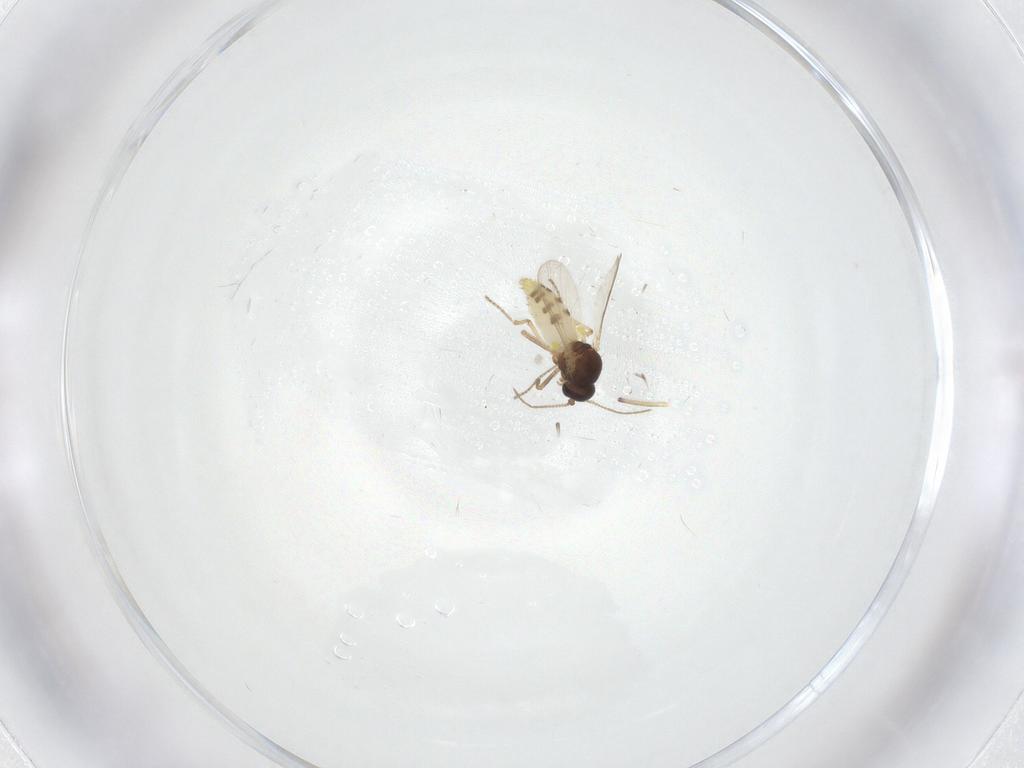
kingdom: Animalia
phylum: Arthropoda
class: Insecta
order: Diptera
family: Ceratopogonidae
